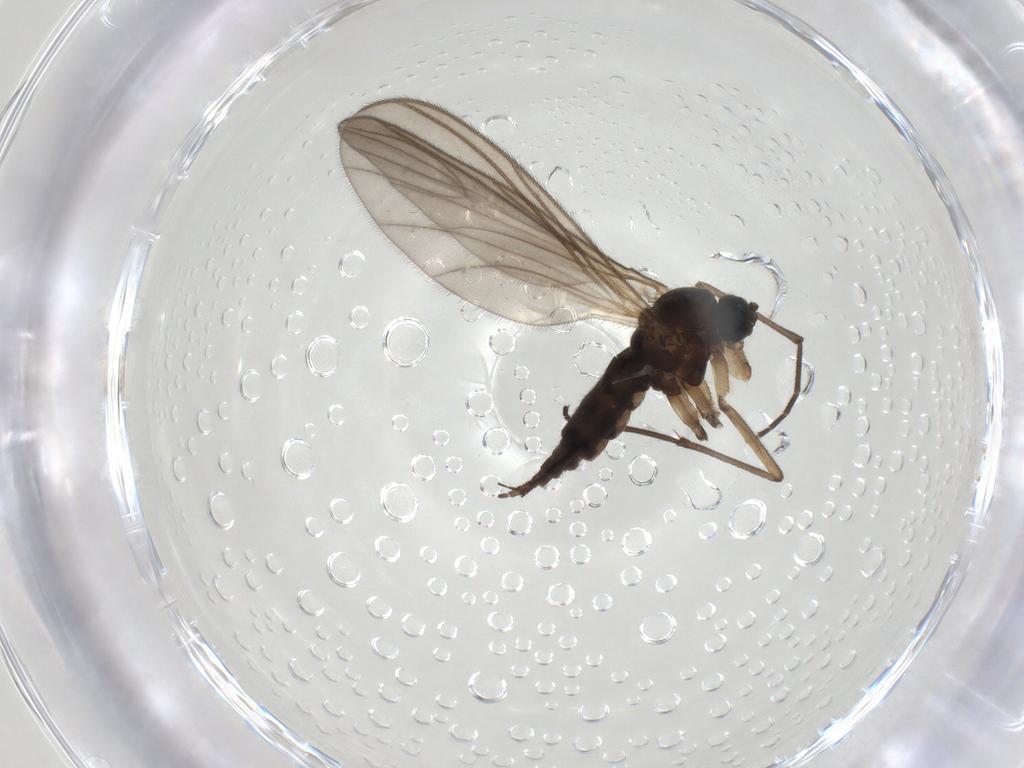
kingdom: Animalia
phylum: Arthropoda
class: Insecta
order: Diptera
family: Sciaridae
